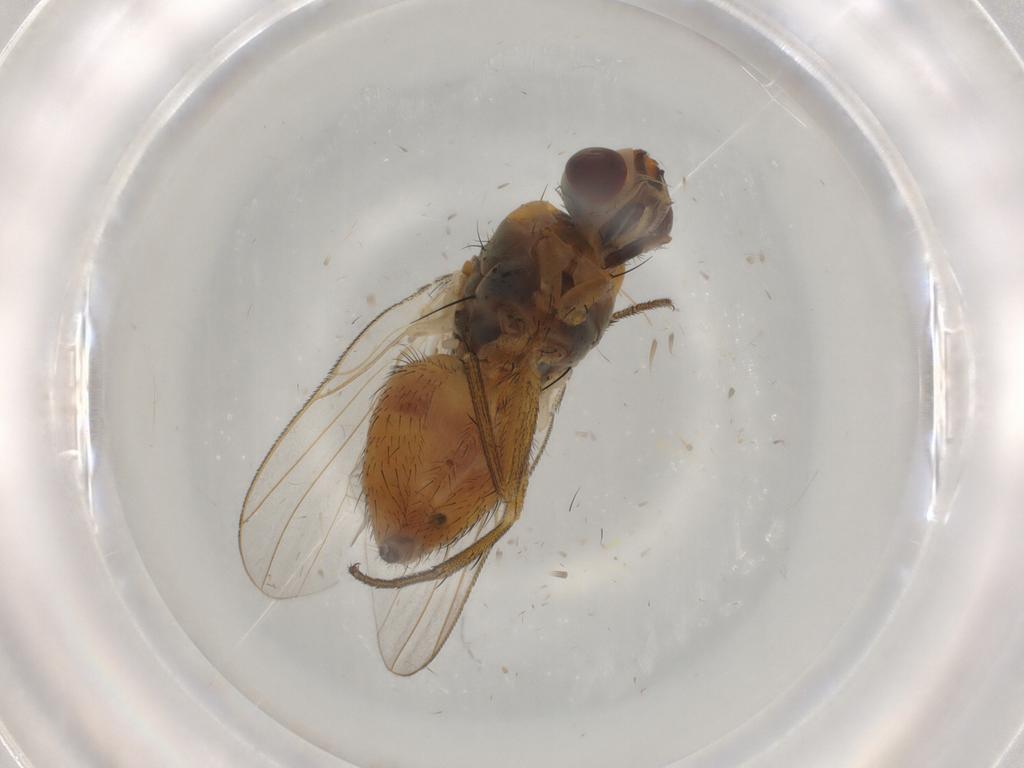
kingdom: Animalia
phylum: Arthropoda
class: Insecta
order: Diptera
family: Muscidae
